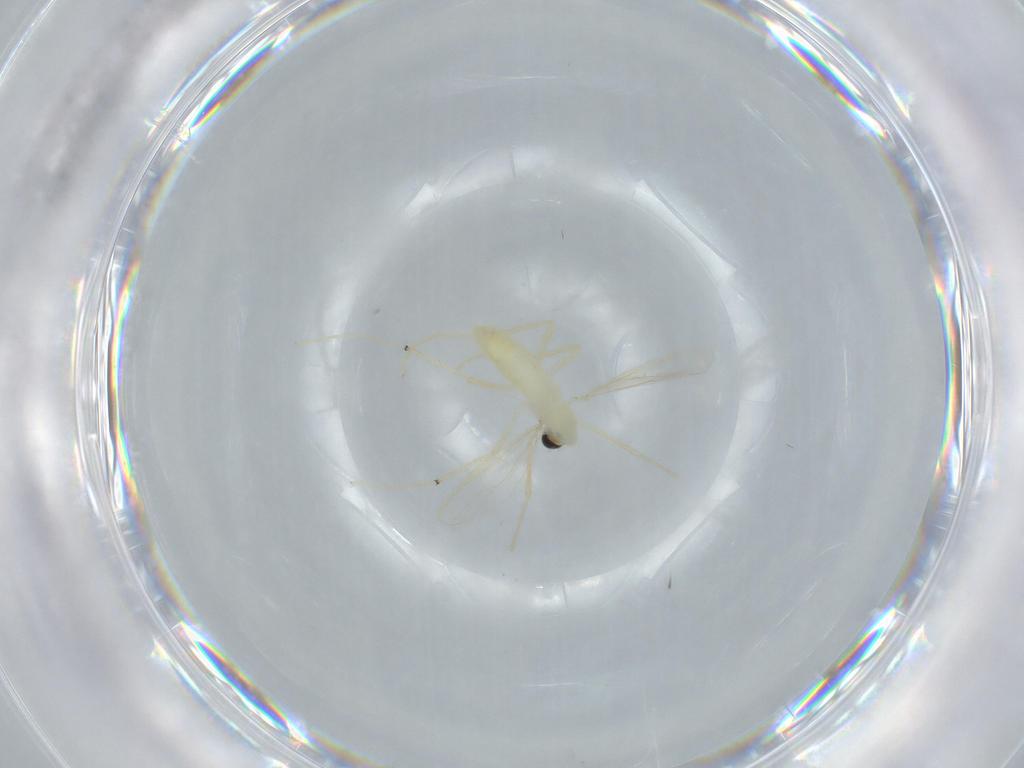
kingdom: Animalia
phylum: Arthropoda
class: Insecta
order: Diptera
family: Chironomidae
